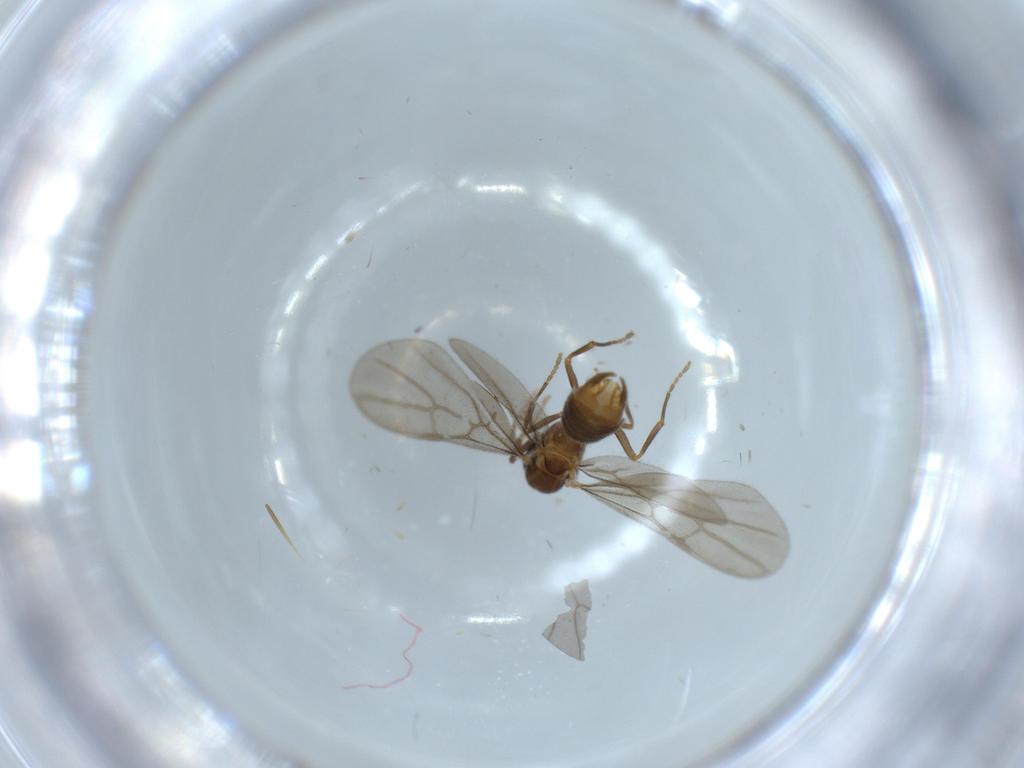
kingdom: Animalia
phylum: Arthropoda
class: Insecta
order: Hymenoptera
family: Formicidae
